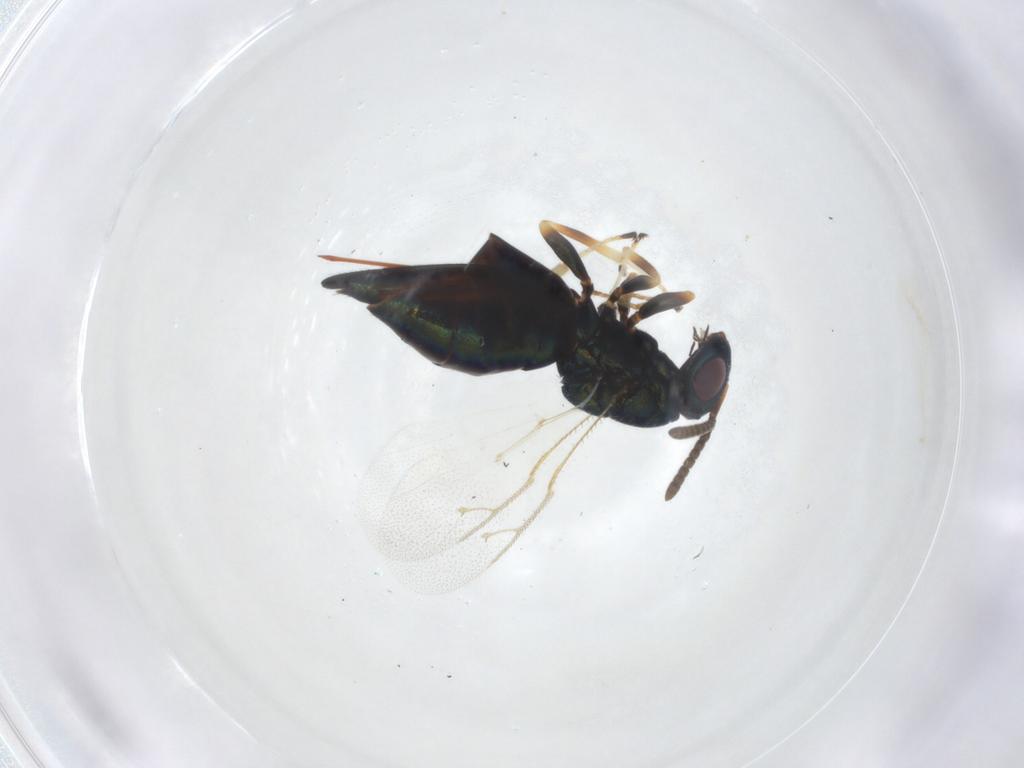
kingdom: Animalia
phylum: Arthropoda
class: Insecta
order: Hymenoptera
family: Pteromalidae
